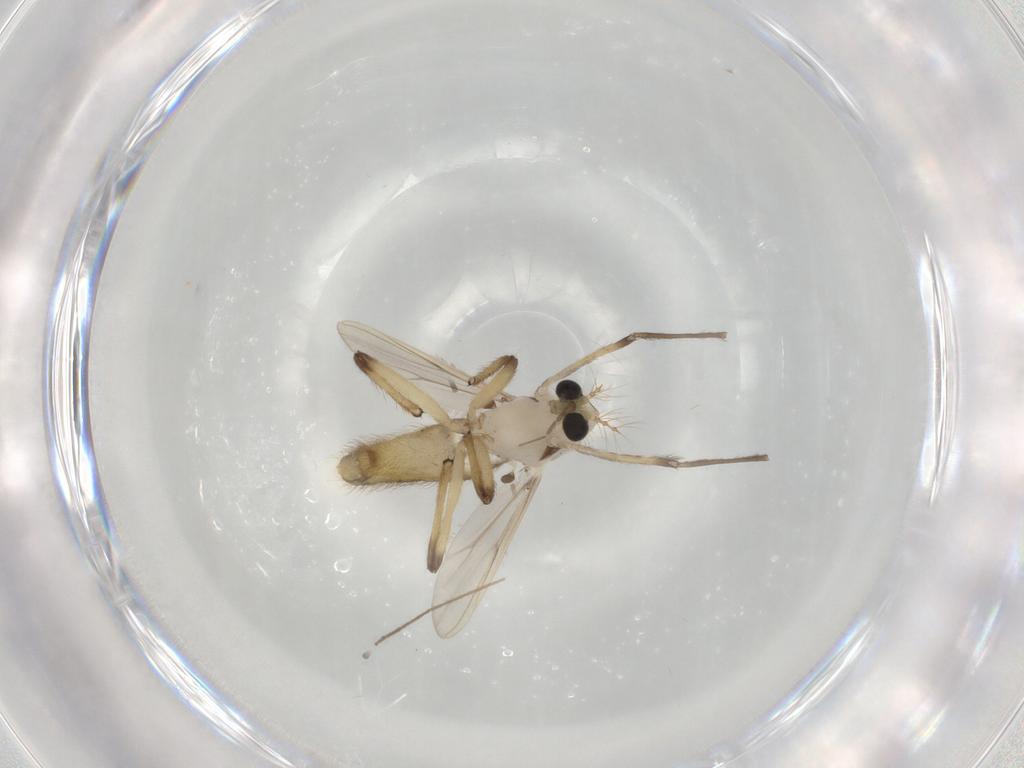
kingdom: Animalia
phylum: Arthropoda
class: Insecta
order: Diptera
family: Chironomidae
